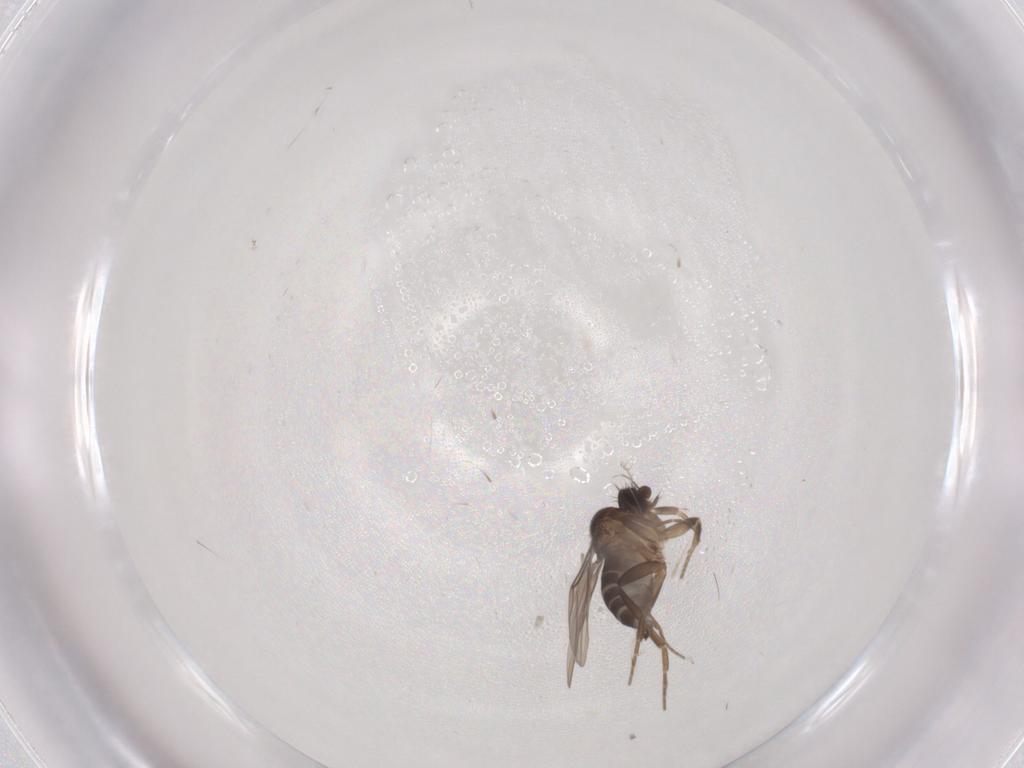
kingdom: Animalia
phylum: Arthropoda
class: Insecta
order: Diptera
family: Phoridae
